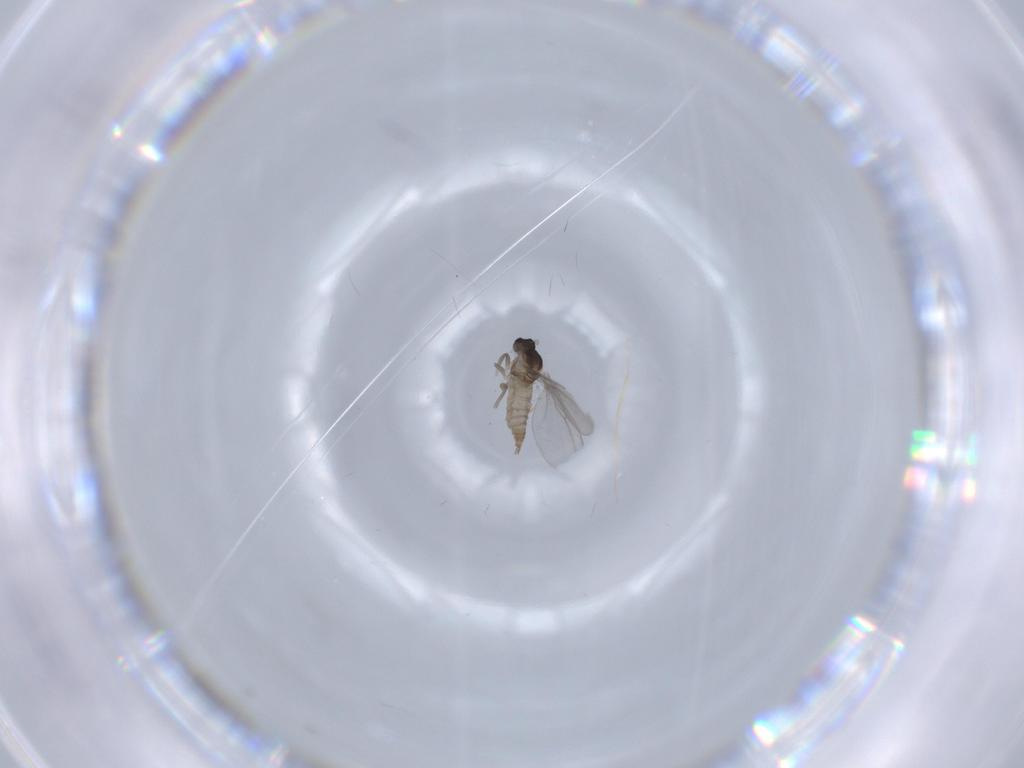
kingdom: Animalia
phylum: Arthropoda
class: Insecta
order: Diptera
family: Cecidomyiidae
